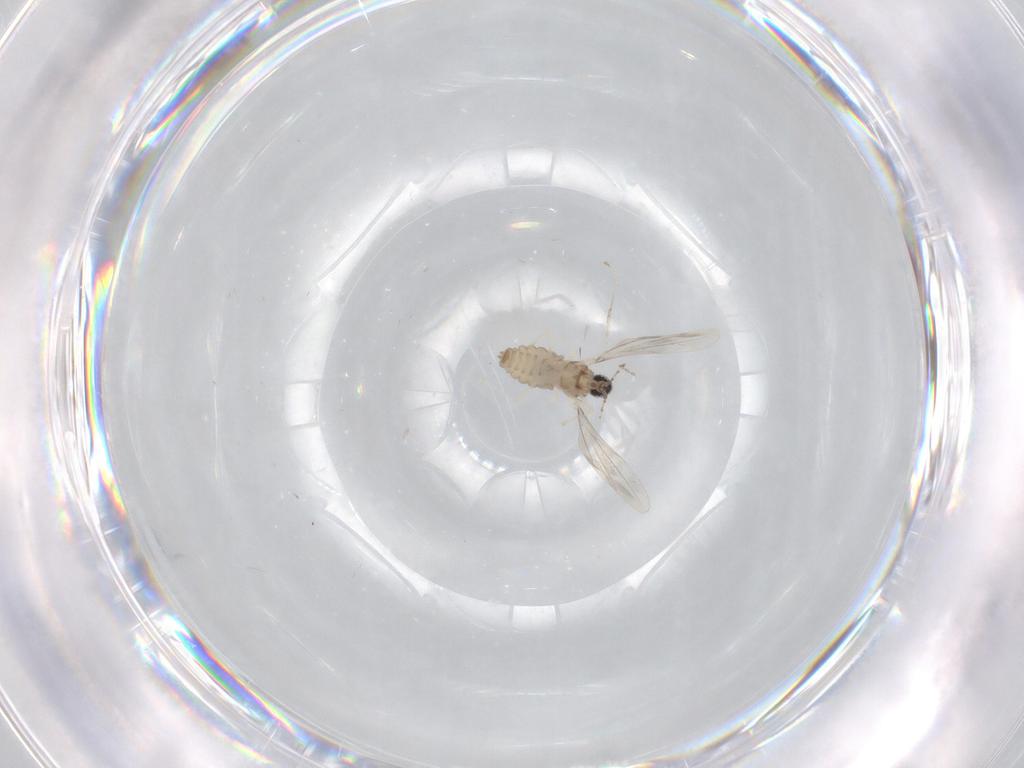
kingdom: Animalia
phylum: Arthropoda
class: Insecta
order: Diptera
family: Cecidomyiidae
